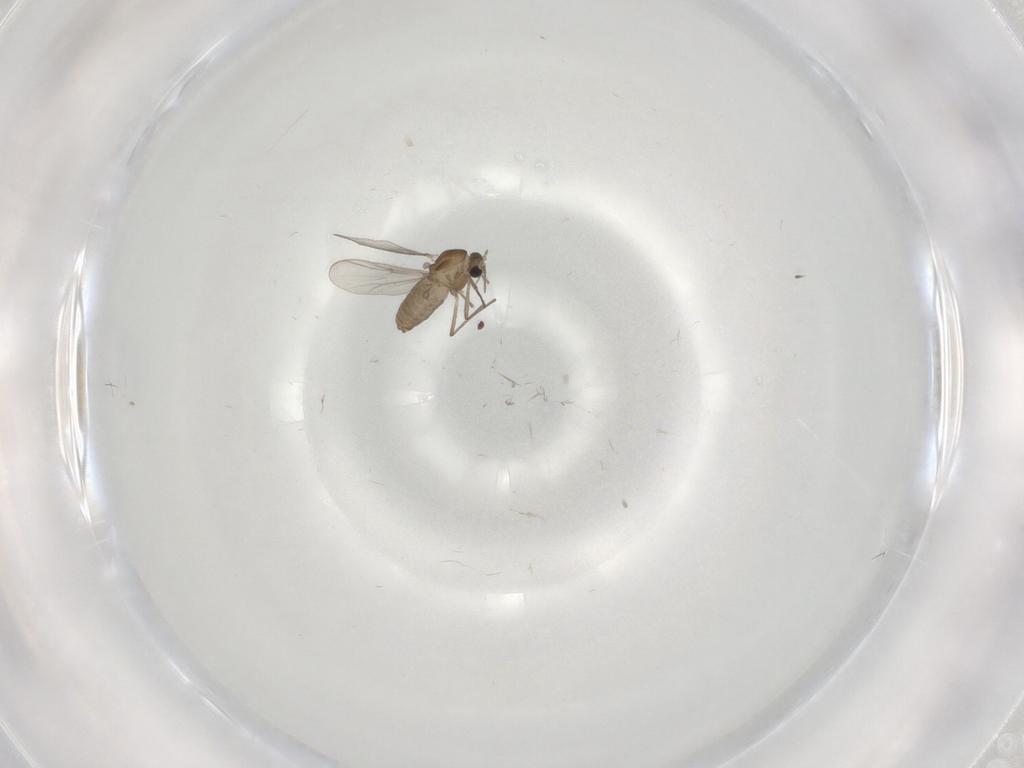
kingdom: Animalia
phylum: Arthropoda
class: Insecta
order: Diptera
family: Chironomidae
